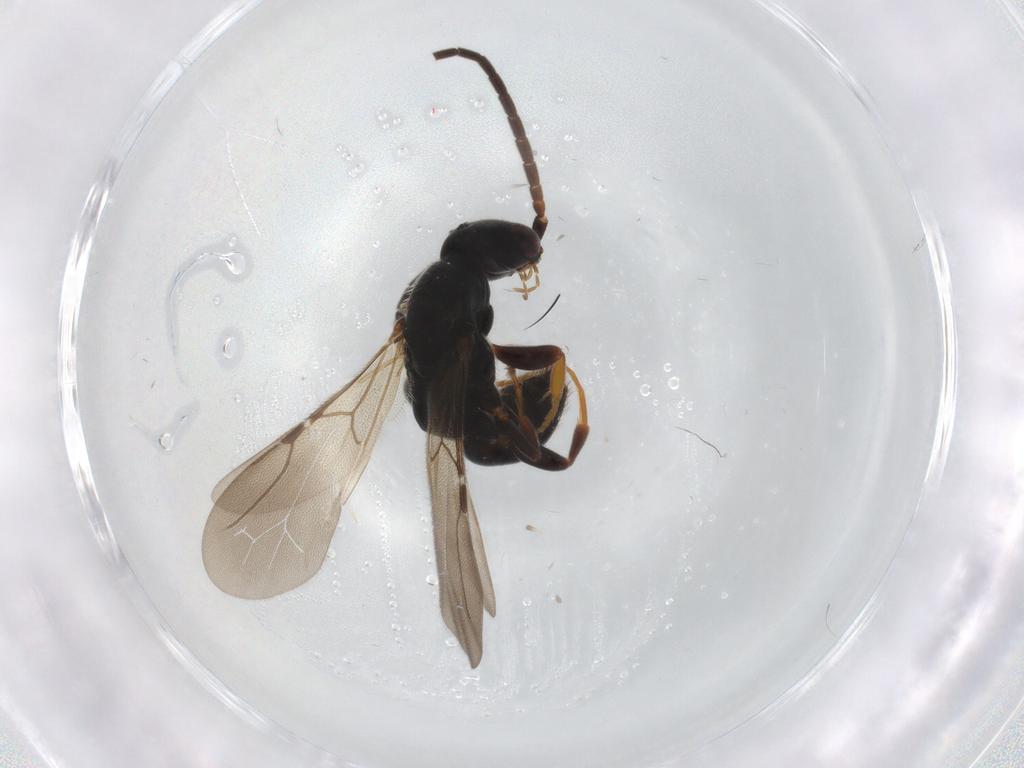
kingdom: Animalia
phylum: Arthropoda
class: Insecta
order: Hymenoptera
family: Bethylidae
